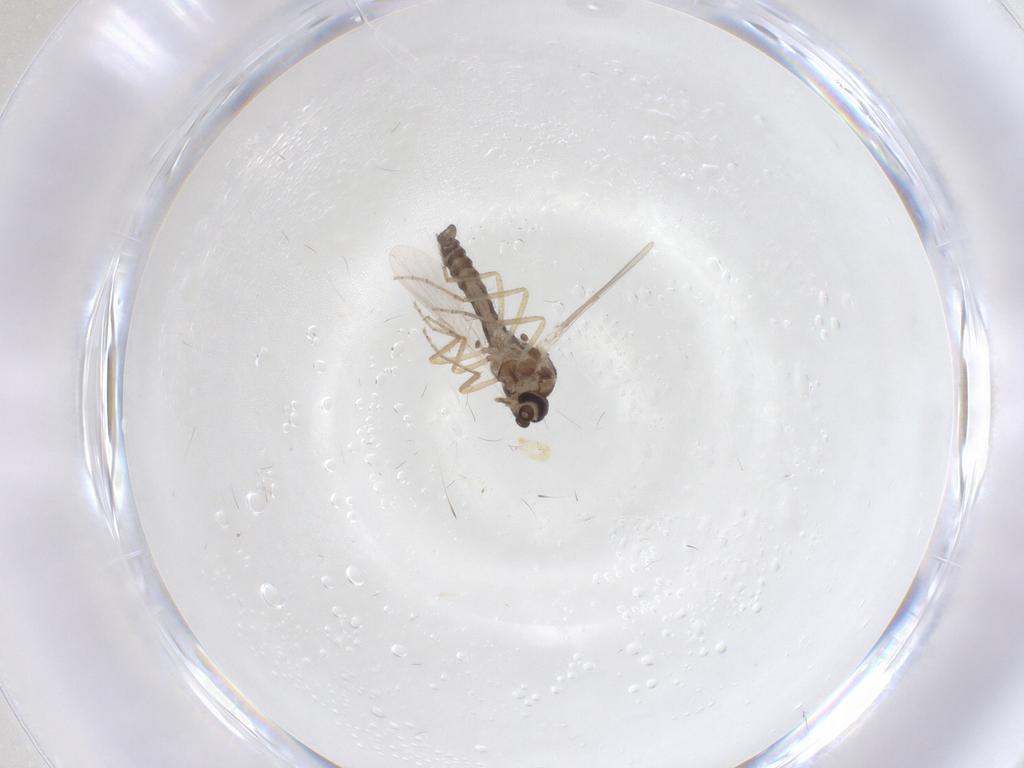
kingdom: Animalia
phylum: Arthropoda
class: Insecta
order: Diptera
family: Ceratopogonidae
